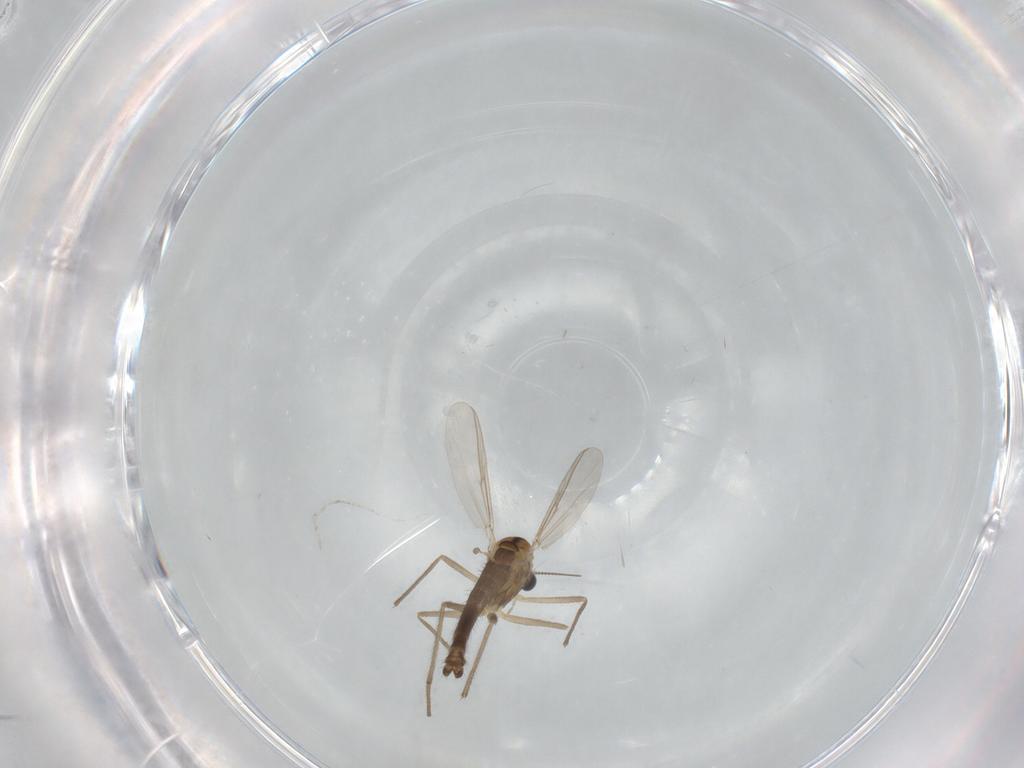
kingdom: Animalia
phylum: Arthropoda
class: Insecta
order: Diptera
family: Chironomidae
